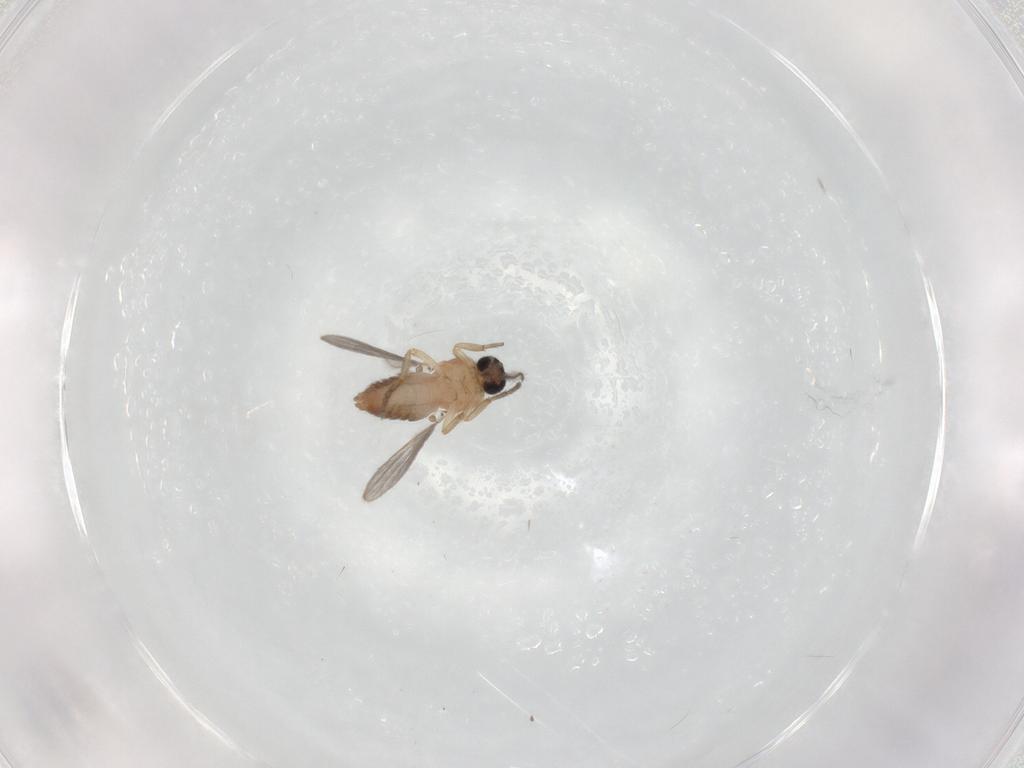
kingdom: Animalia
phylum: Arthropoda
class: Insecta
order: Diptera
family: Ceratopogonidae
